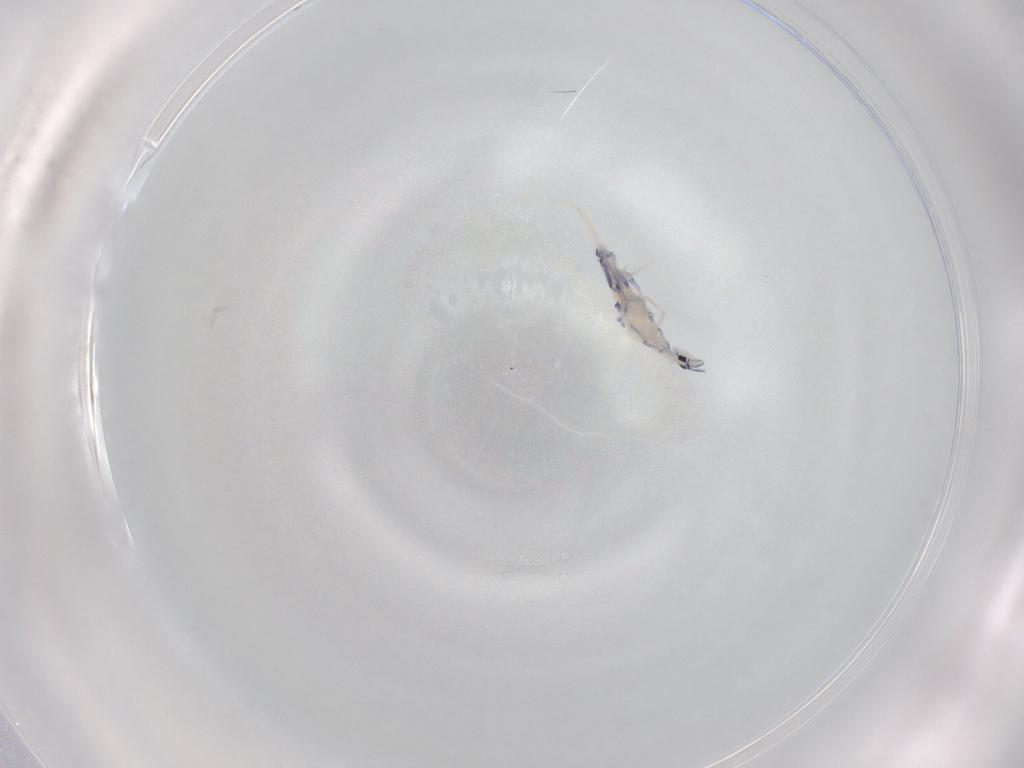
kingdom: Animalia
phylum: Arthropoda
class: Collembola
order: Entomobryomorpha
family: Entomobryidae
